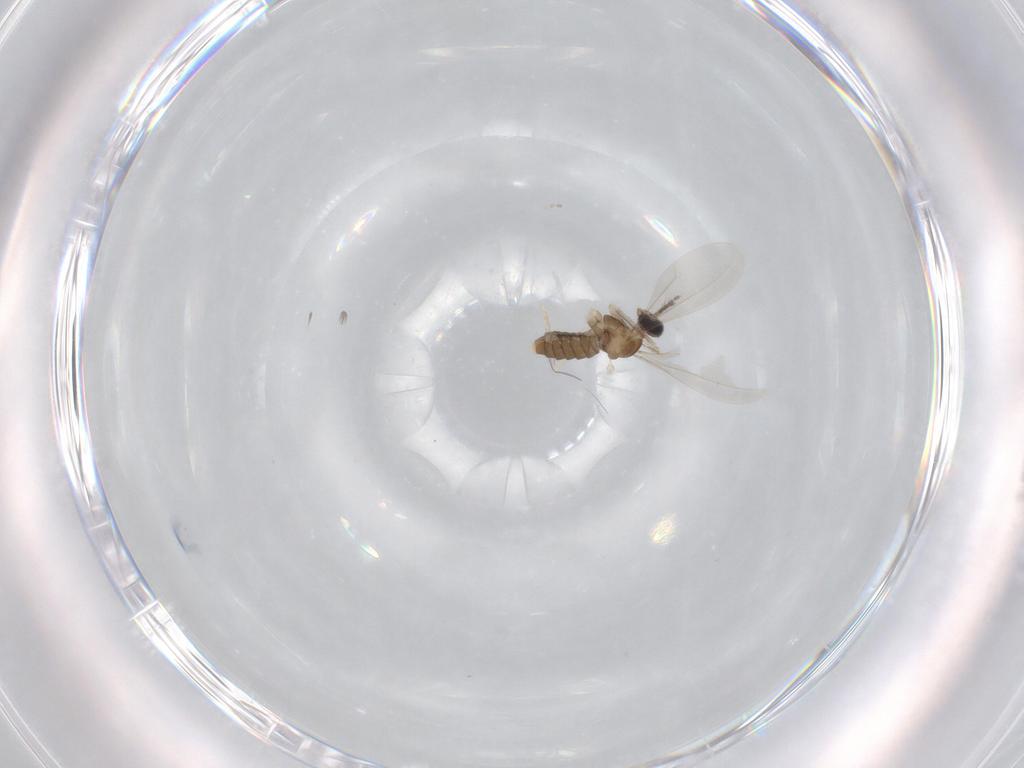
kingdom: Animalia
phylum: Arthropoda
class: Insecta
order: Diptera
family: Cecidomyiidae
